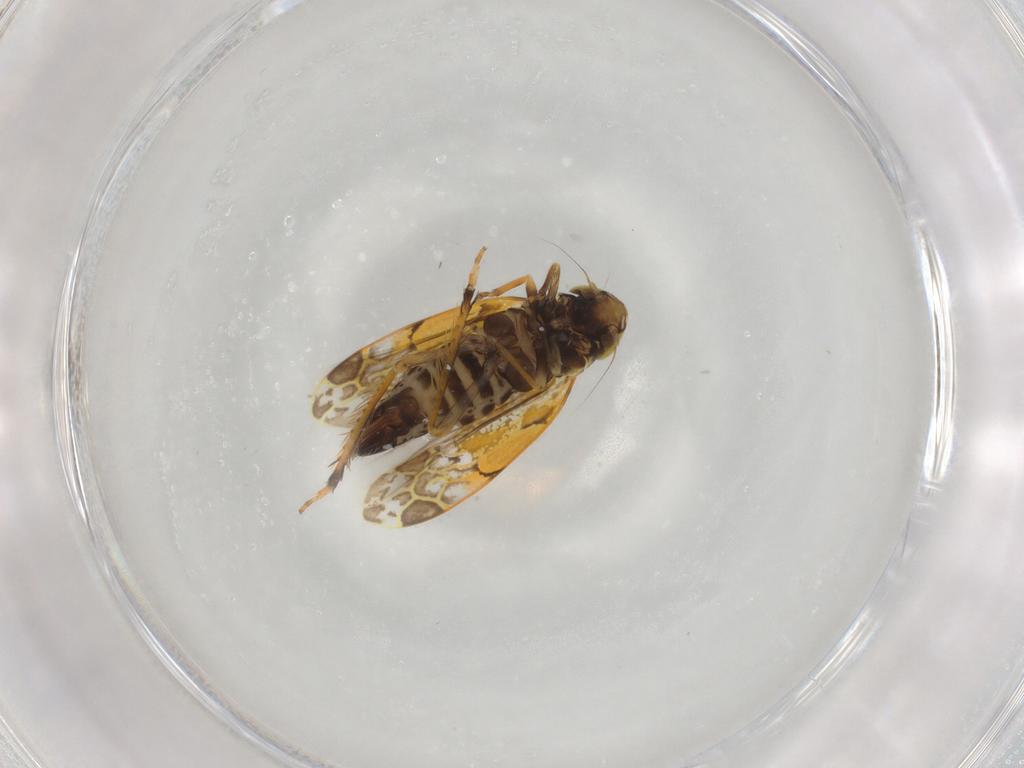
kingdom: Animalia
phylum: Arthropoda
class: Insecta
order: Hemiptera
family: Cicadellidae
